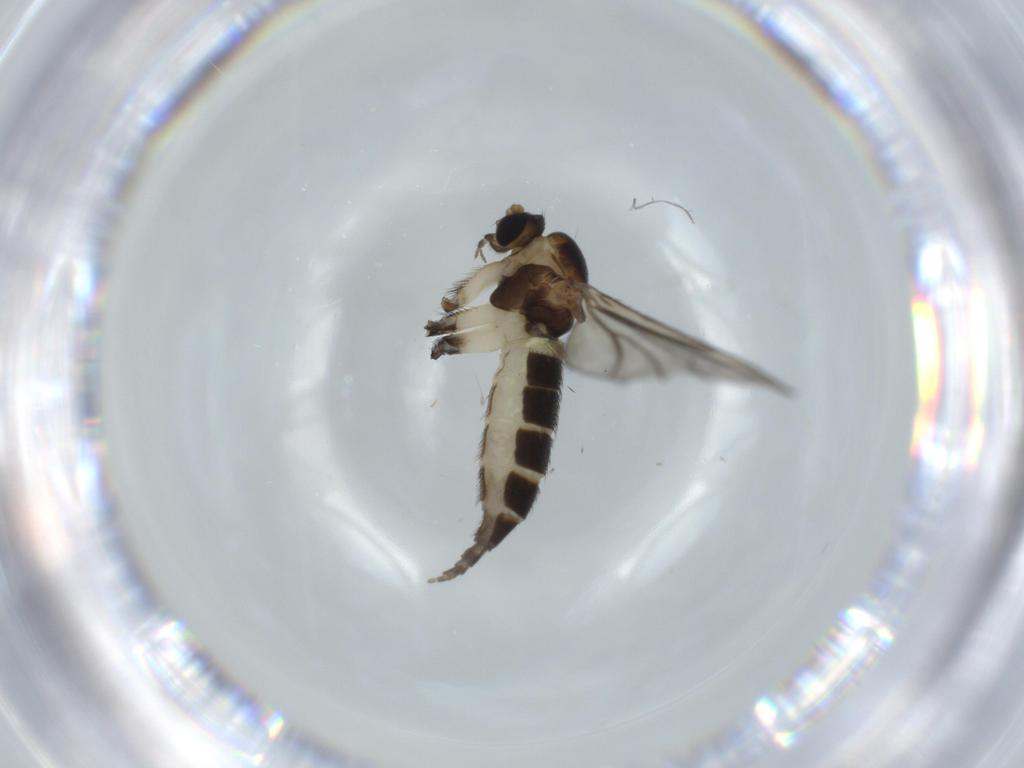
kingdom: Animalia
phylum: Arthropoda
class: Insecta
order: Diptera
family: Sciaridae
